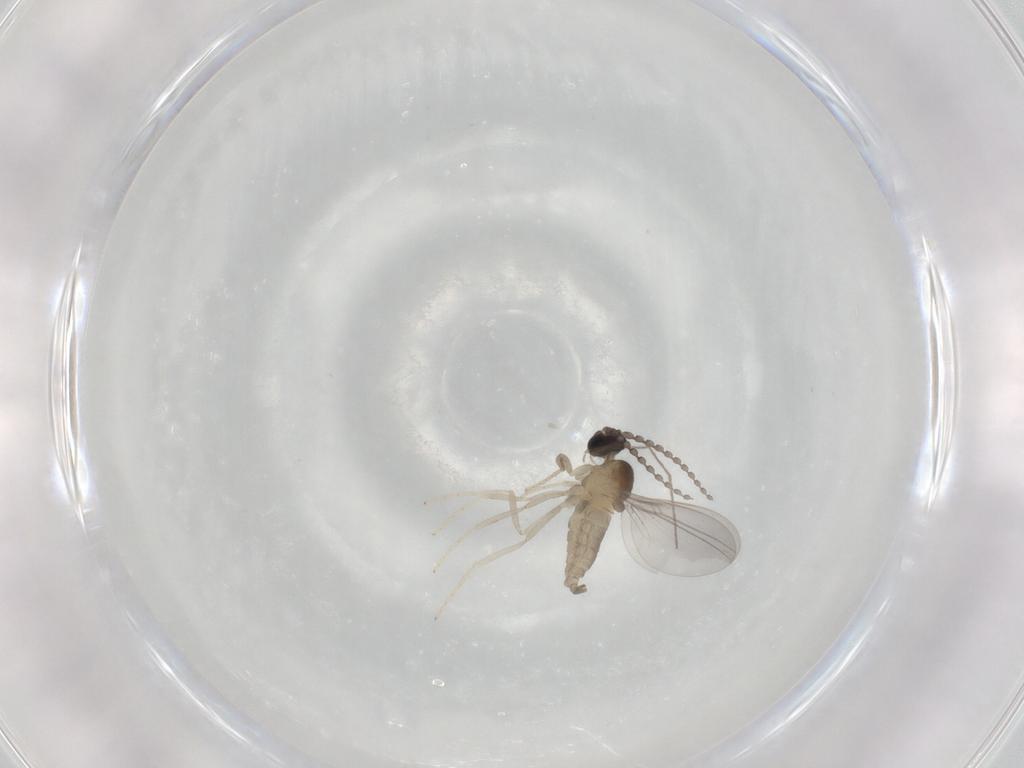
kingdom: Animalia
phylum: Arthropoda
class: Insecta
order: Diptera
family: Cecidomyiidae
